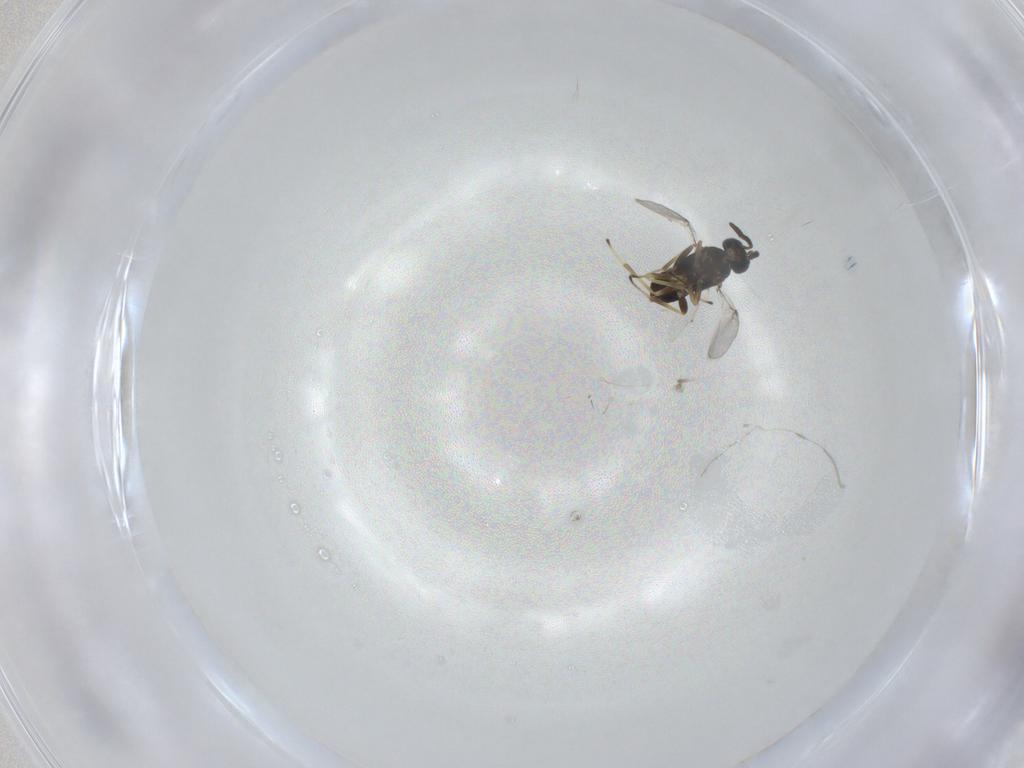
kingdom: Animalia
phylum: Arthropoda
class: Insecta
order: Hymenoptera
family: Encyrtidae
